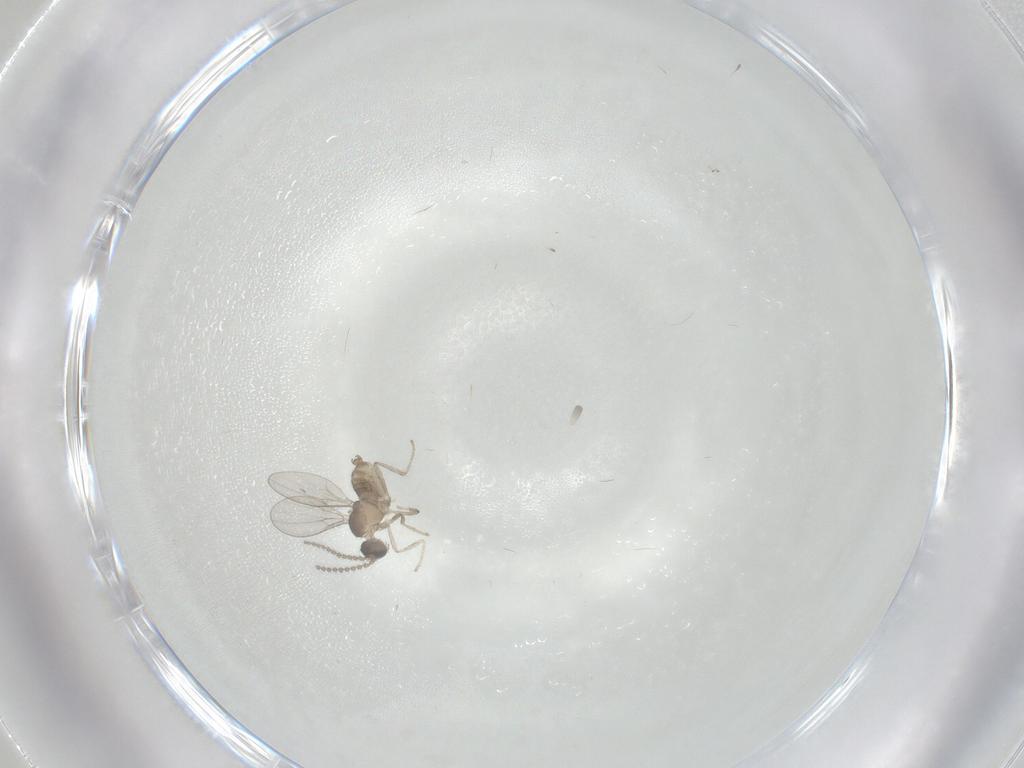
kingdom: Animalia
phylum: Arthropoda
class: Insecta
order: Diptera
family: Cecidomyiidae
